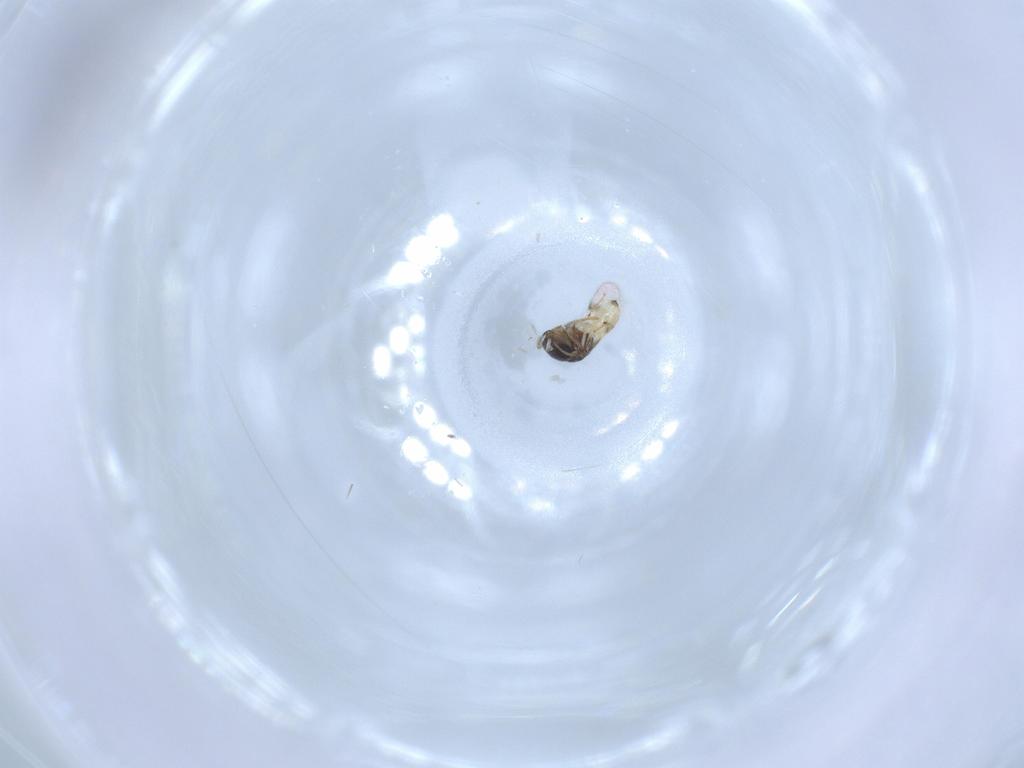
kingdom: Animalia
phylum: Arthropoda
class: Insecta
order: Hymenoptera
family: Scelionidae
